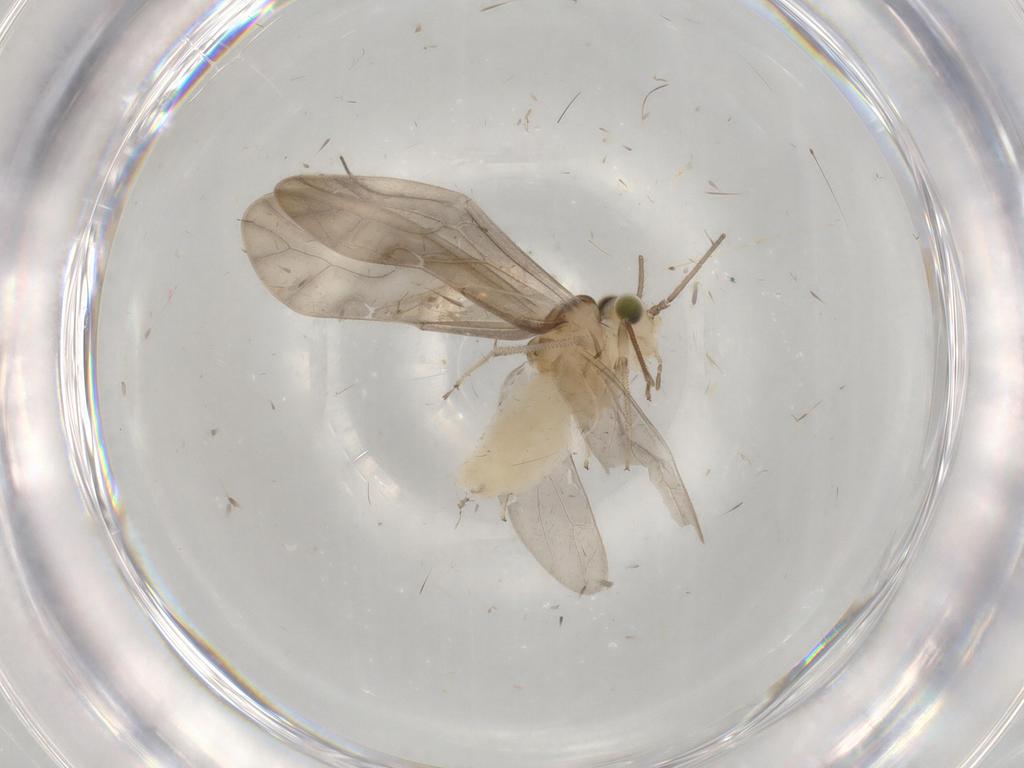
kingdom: Animalia
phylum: Arthropoda
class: Insecta
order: Psocodea
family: Caeciliusidae
